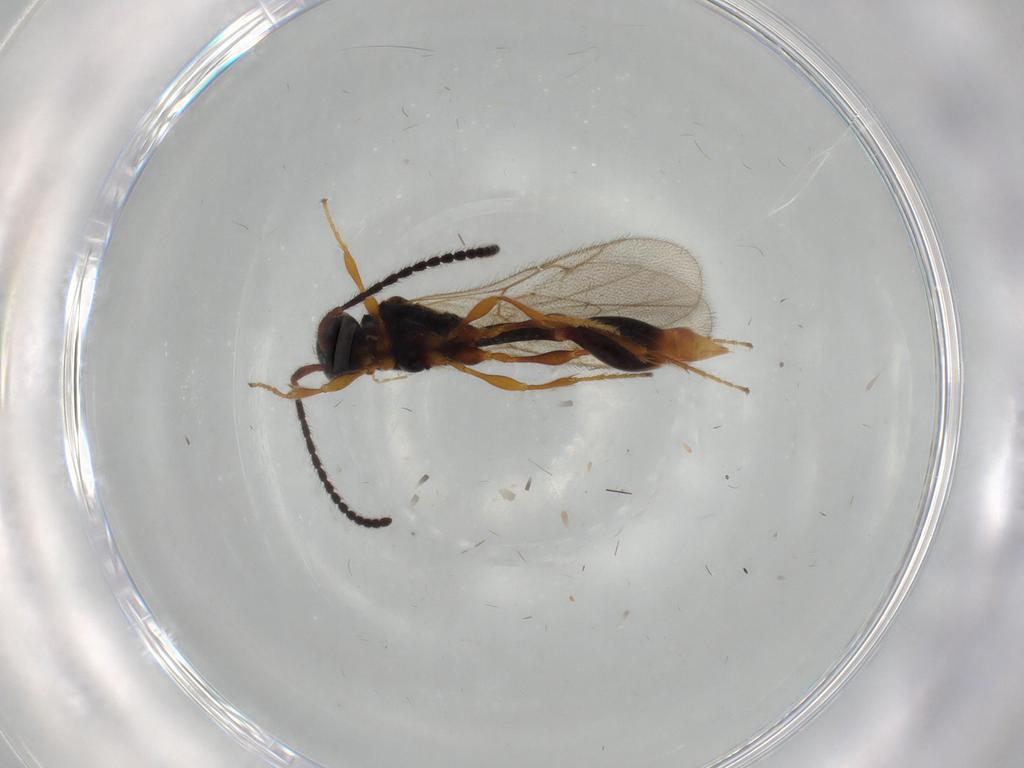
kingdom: Animalia
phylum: Arthropoda
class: Insecta
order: Hymenoptera
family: Diapriidae
